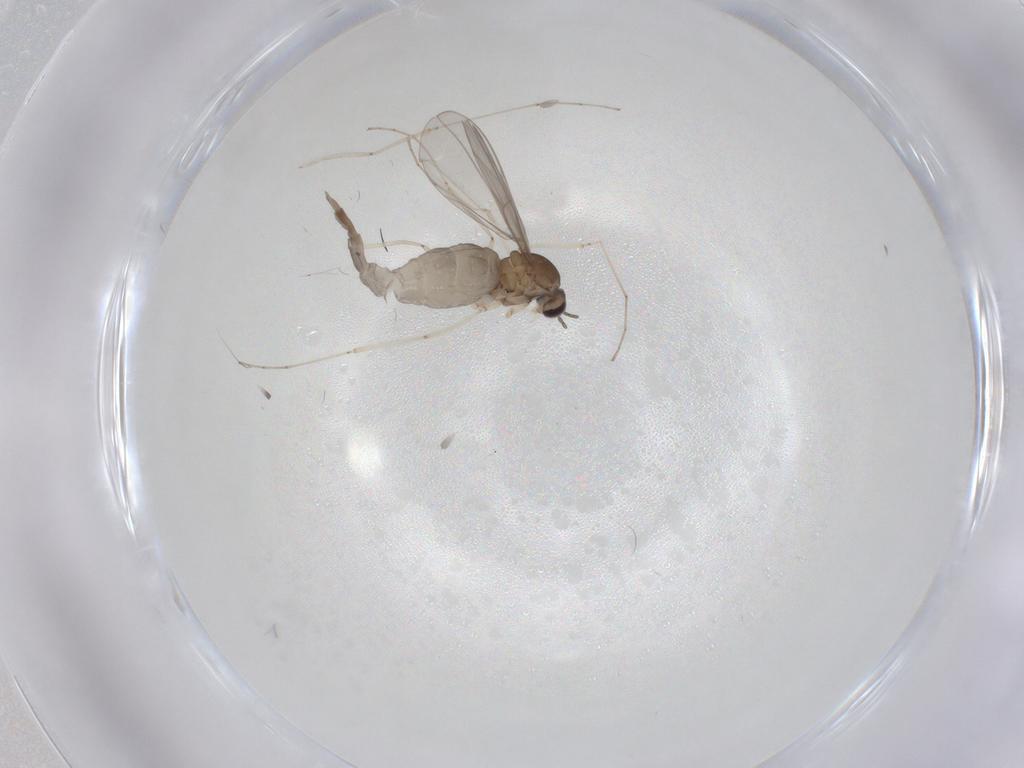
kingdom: Animalia
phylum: Arthropoda
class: Insecta
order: Diptera
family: Cecidomyiidae
